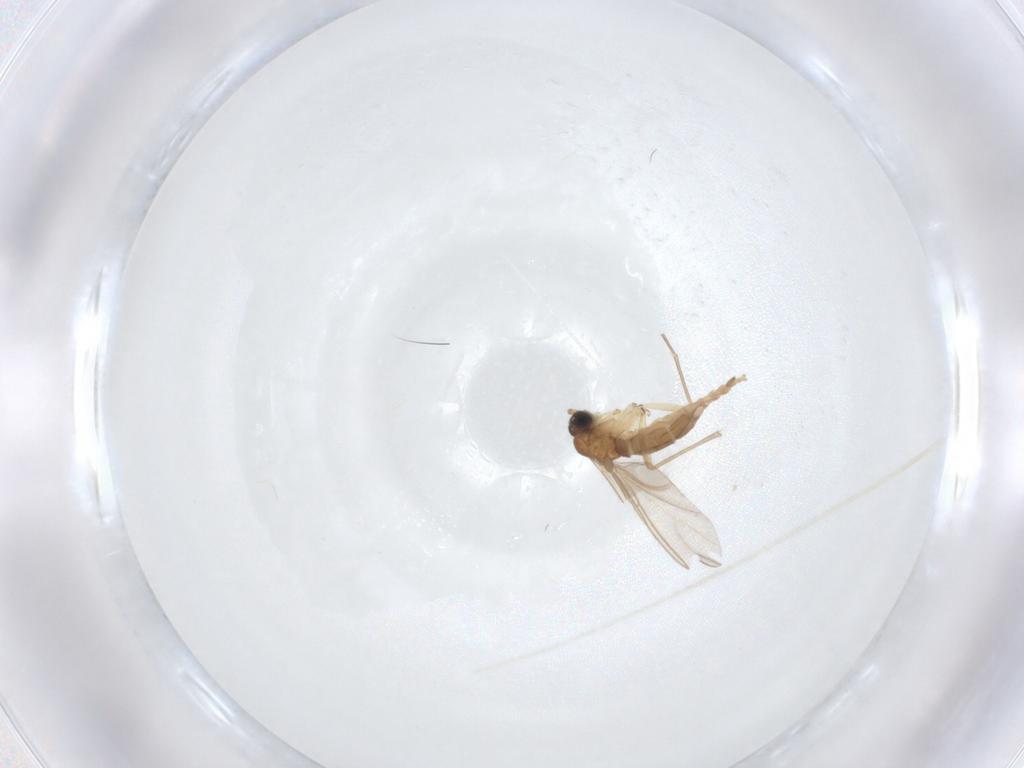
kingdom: Animalia
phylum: Arthropoda
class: Insecta
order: Diptera
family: Sciaridae
